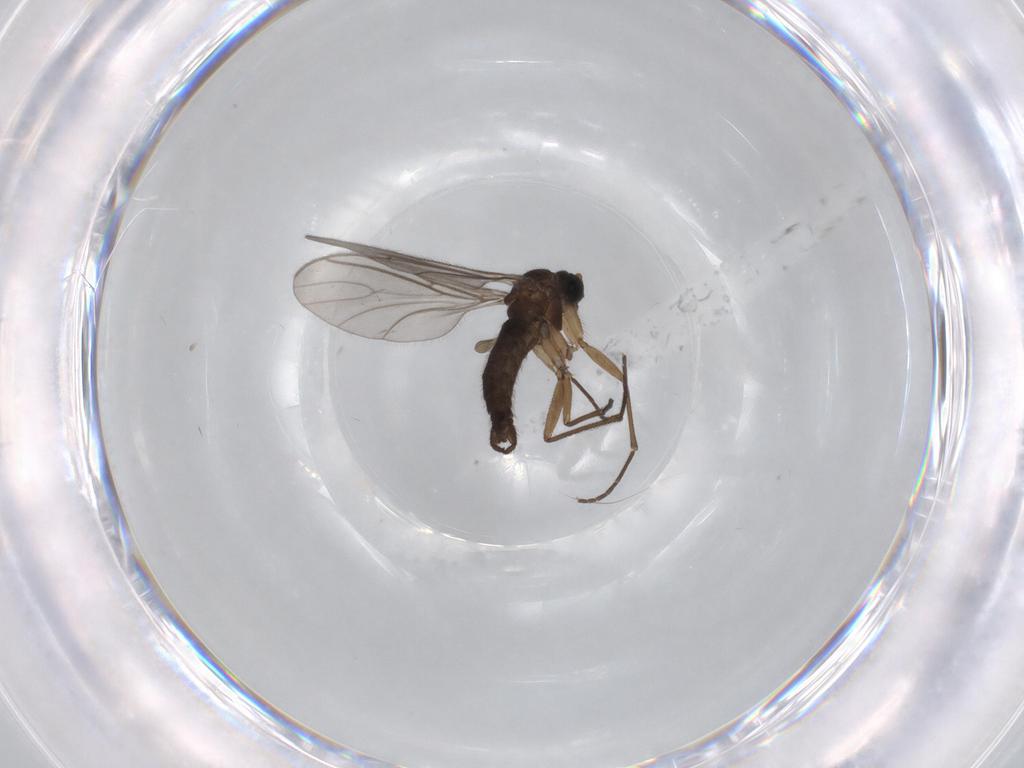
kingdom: Animalia
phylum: Arthropoda
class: Insecta
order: Diptera
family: Sciaridae
